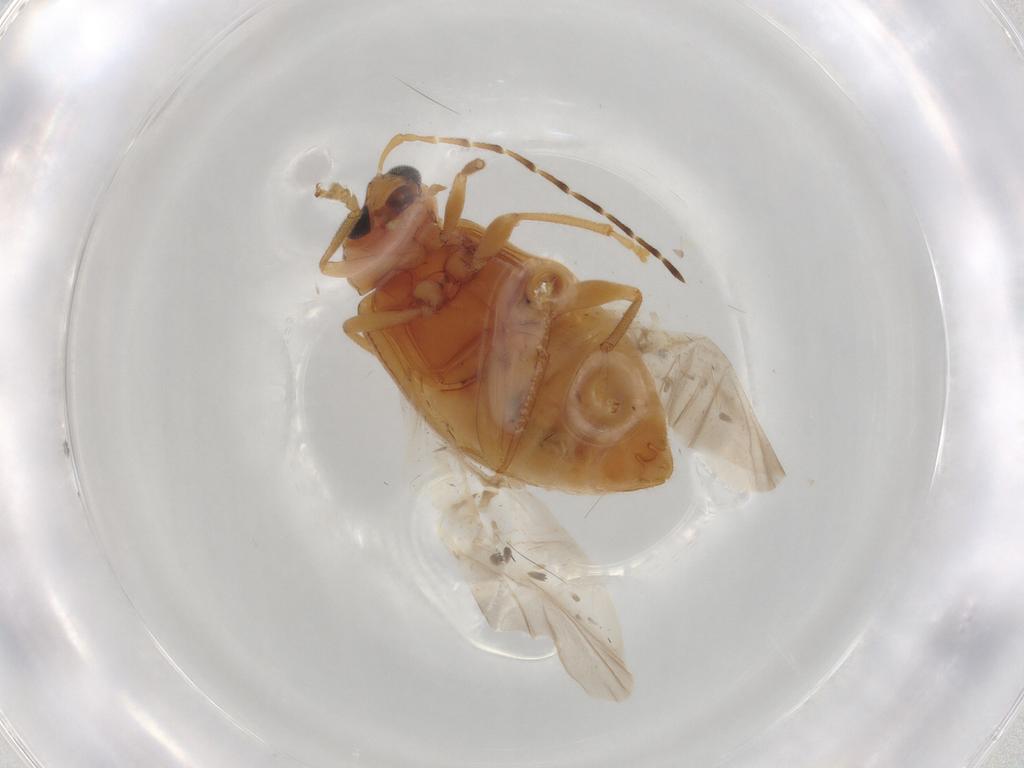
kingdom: Animalia
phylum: Arthropoda
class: Insecta
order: Coleoptera
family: Chrysomelidae
